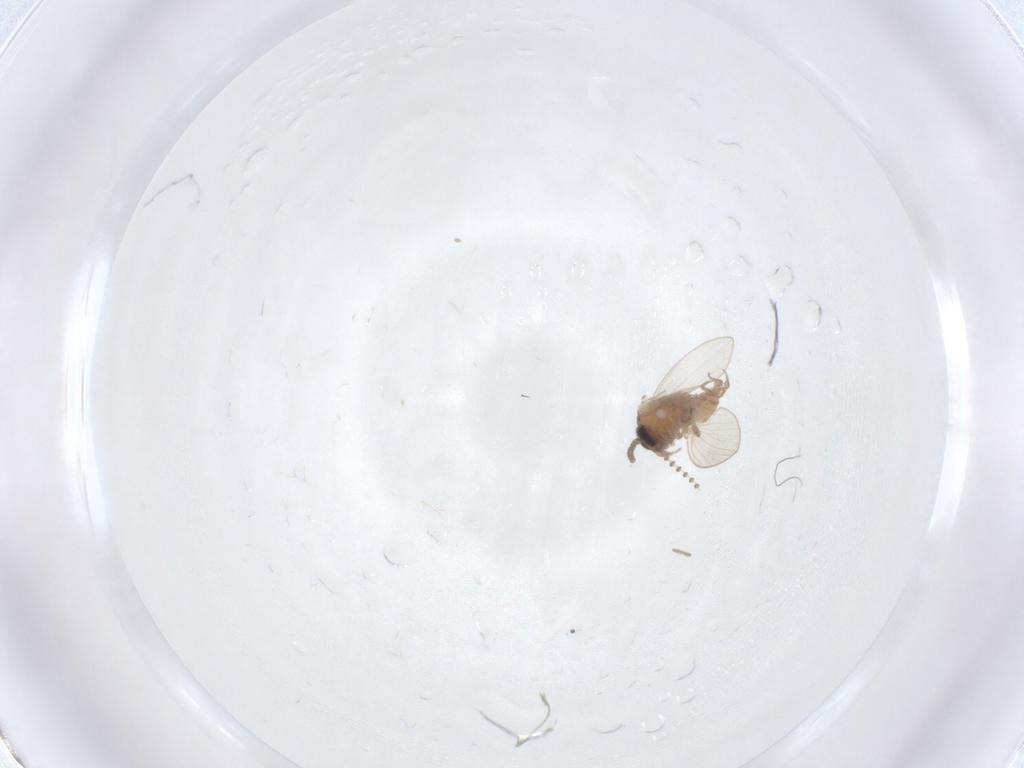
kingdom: Animalia
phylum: Arthropoda
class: Insecta
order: Diptera
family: Psychodidae
